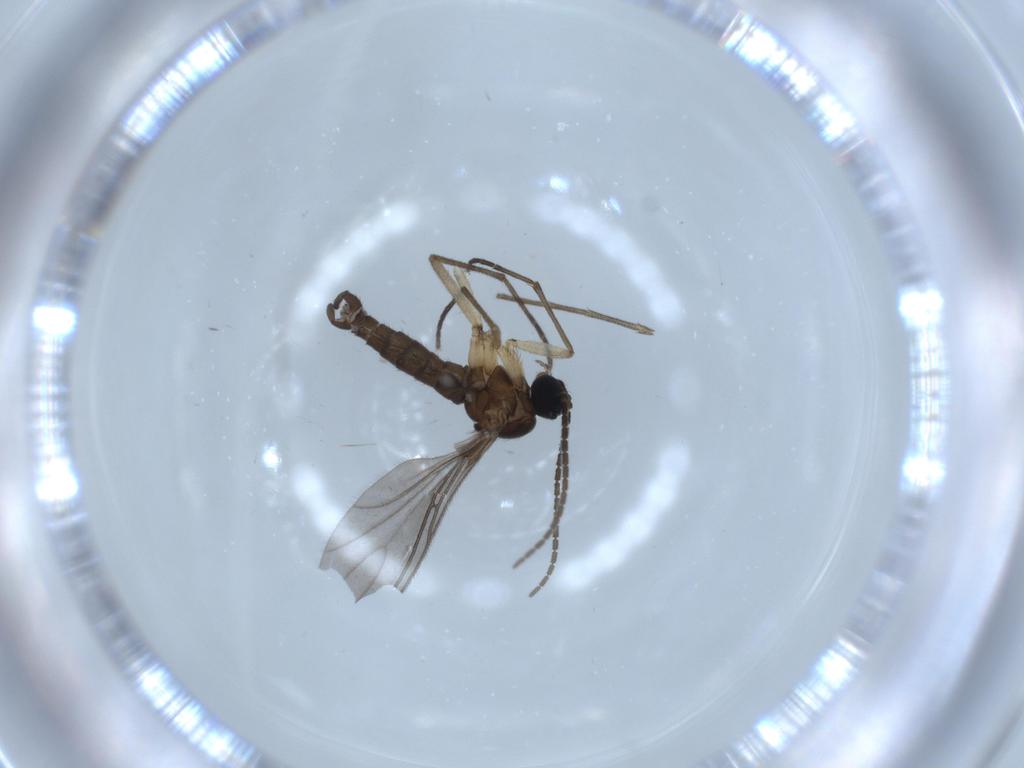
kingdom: Animalia
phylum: Arthropoda
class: Insecta
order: Diptera
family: Sciaridae
